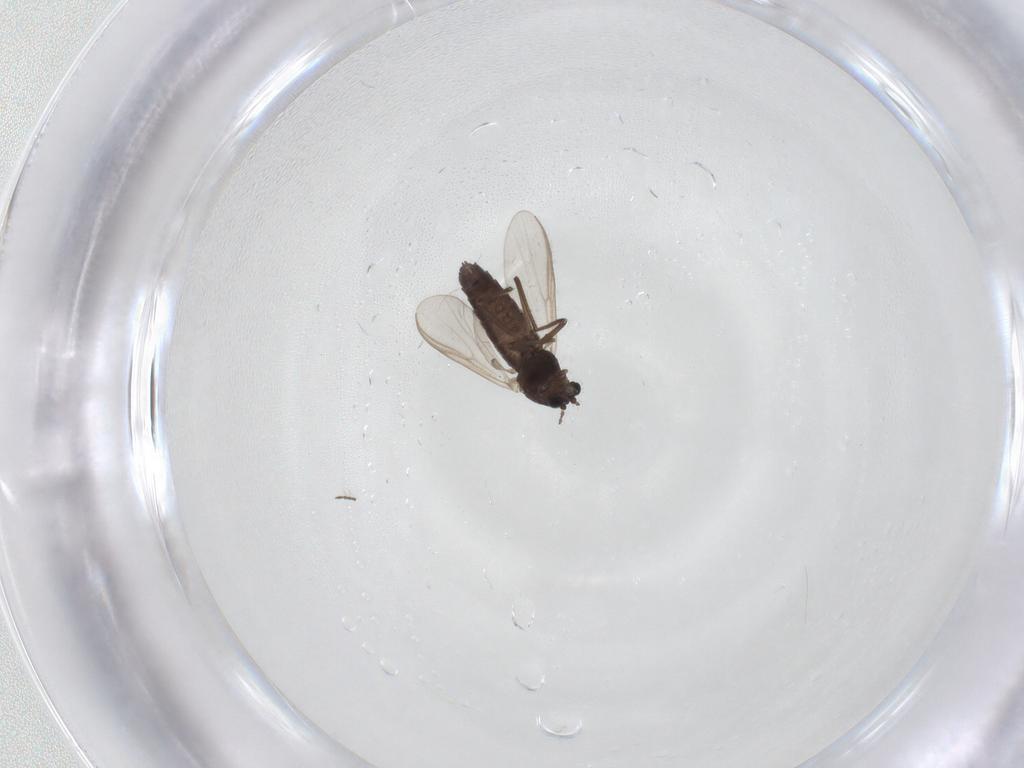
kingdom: Animalia
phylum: Arthropoda
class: Insecta
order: Diptera
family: Chironomidae
